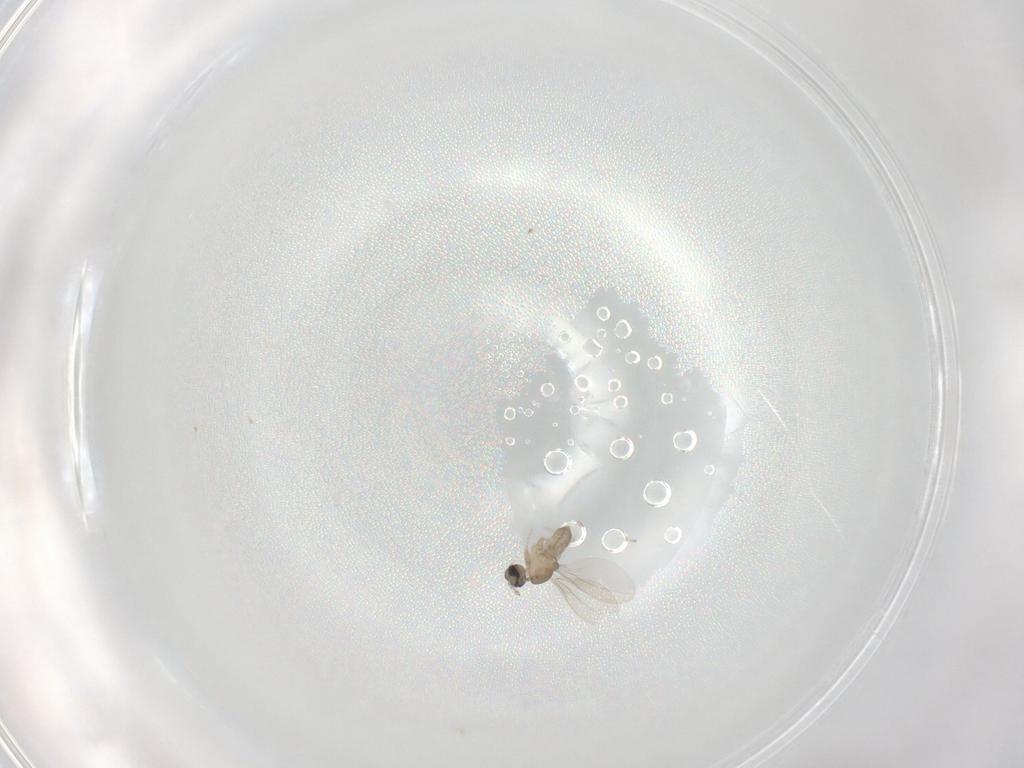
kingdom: Animalia
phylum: Arthropoda
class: Insecta
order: Diptera
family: Cecidomyiidae
